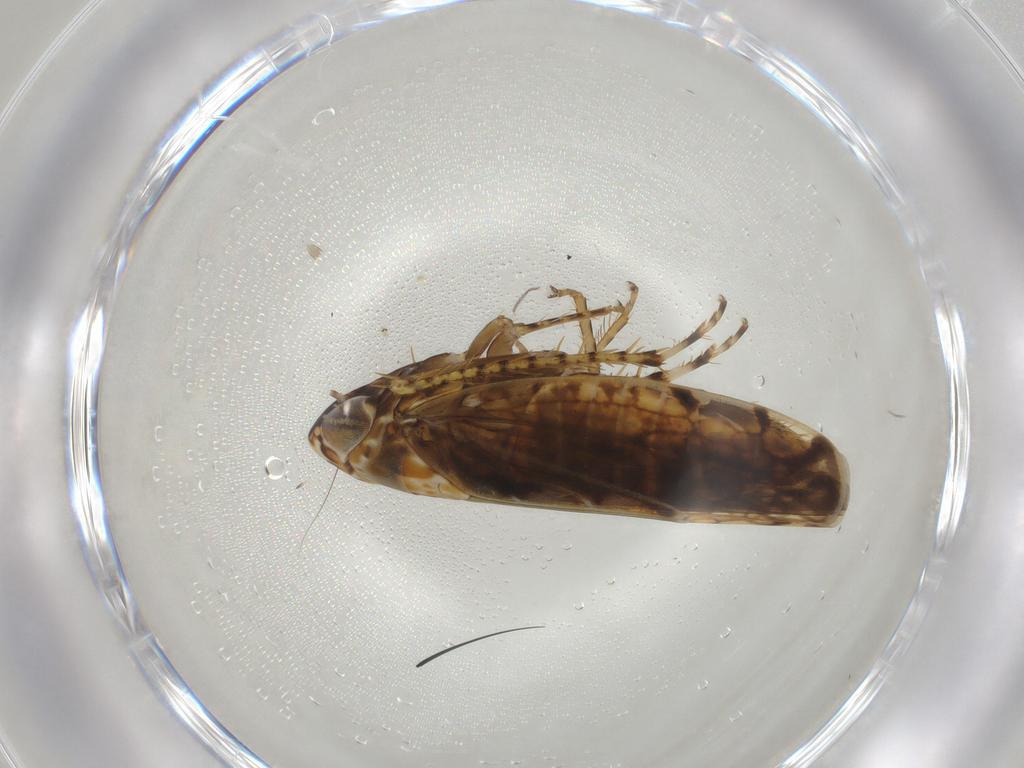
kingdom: Animalia
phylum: Arthropoda
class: Insecta
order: Hemiptera
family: Cicadellidae
